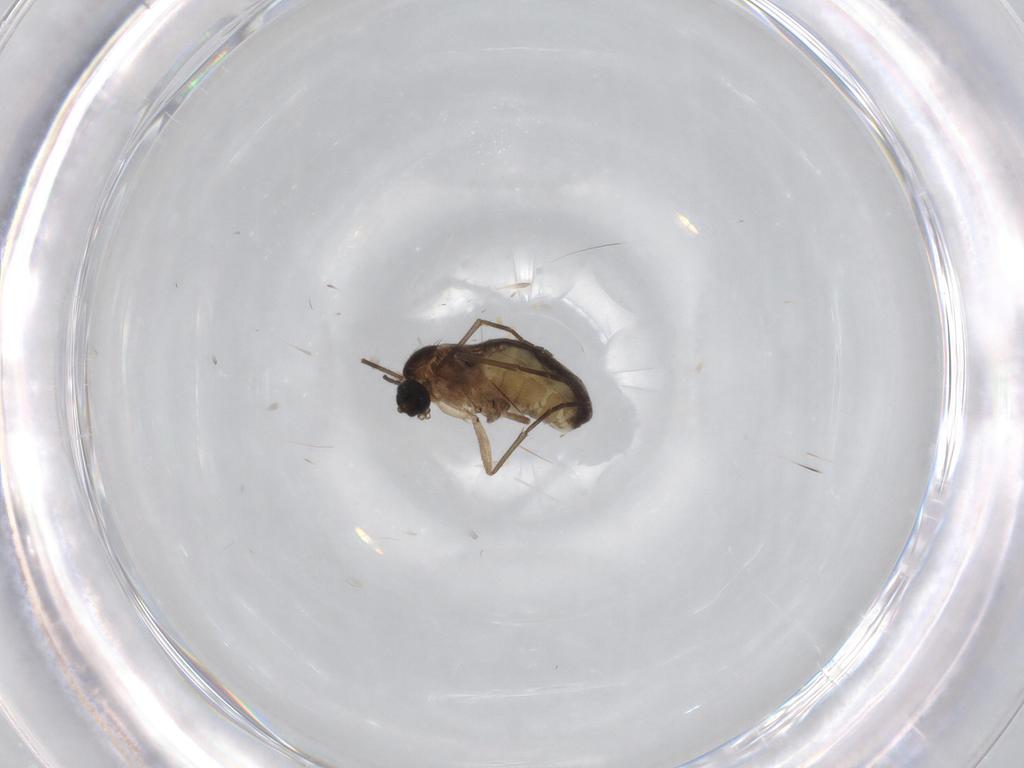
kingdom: Animalia
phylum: Arthropoda
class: Insecta
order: Diptera
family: Sciaridae
